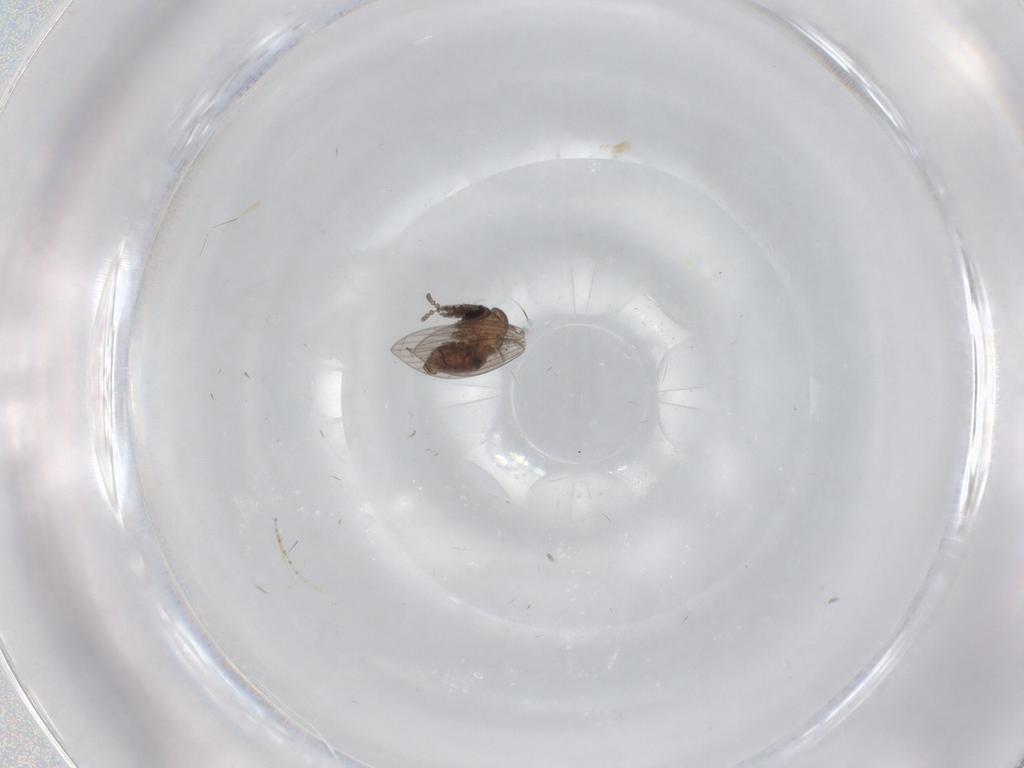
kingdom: Animalia
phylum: Arthropoda
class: Insecta
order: Diptera
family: Psychodidae
